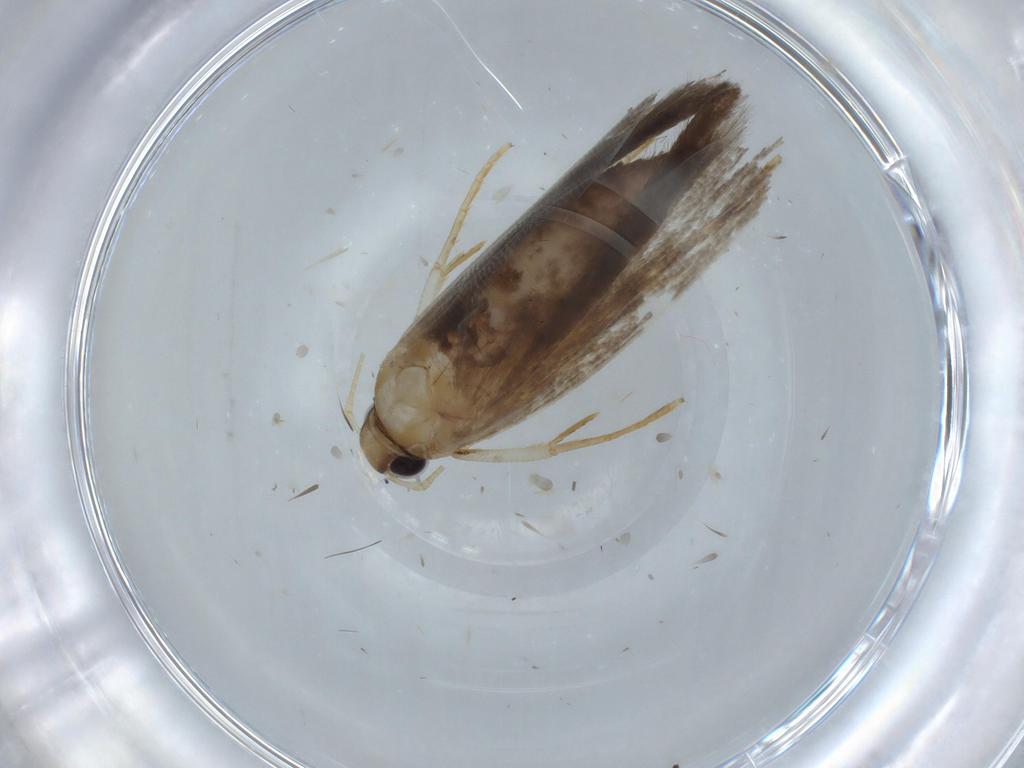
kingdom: Animalia
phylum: Arthropoda
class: Insecta
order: Lepidoptera
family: Gelechiidae
